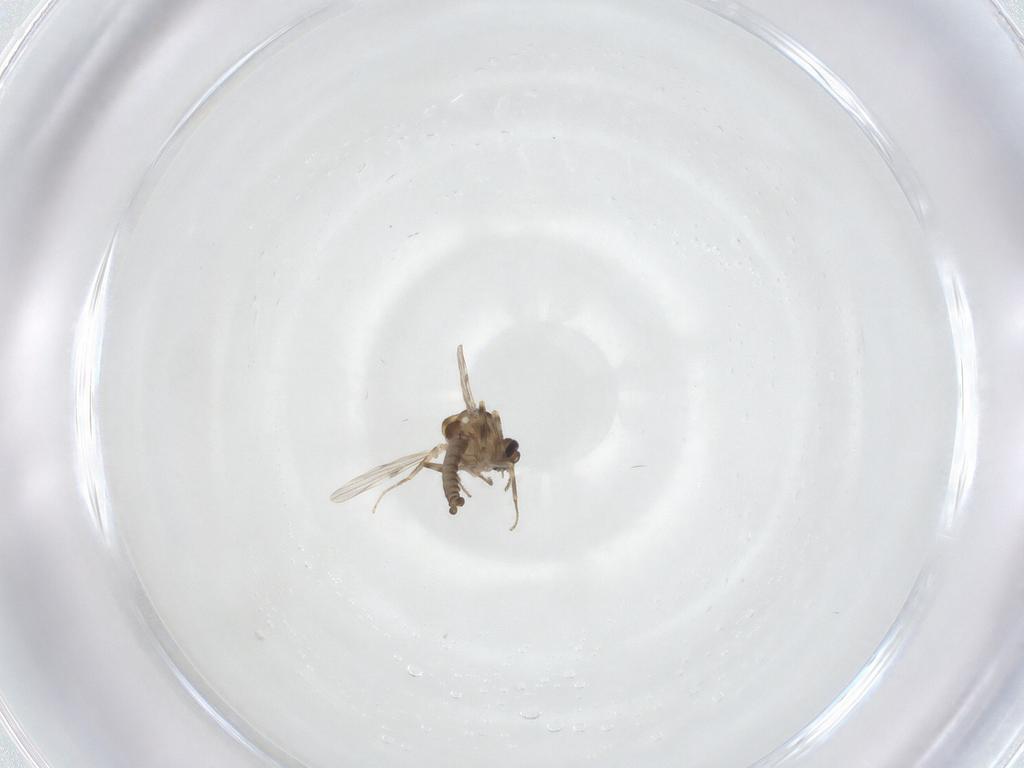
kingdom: Animalia
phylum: Arthropoda
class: Insecta
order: Diptera
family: Ceratopogonidae
